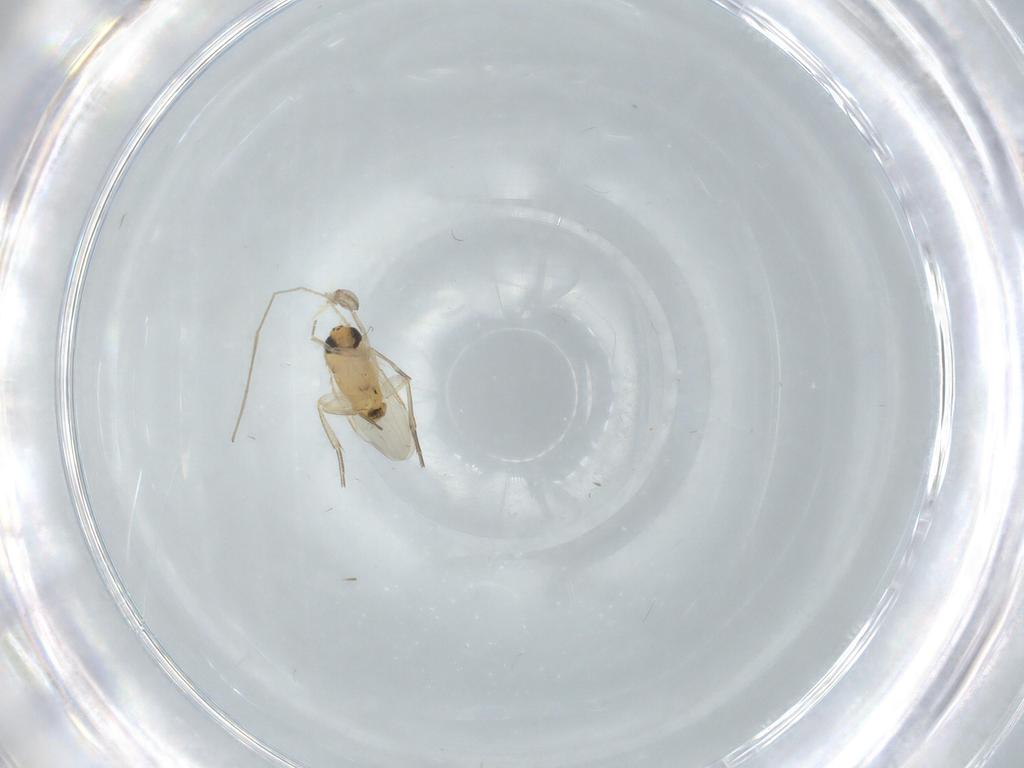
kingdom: Animalia
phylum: Arthropoda
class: Insecta
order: Diptera
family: Chironomidae
